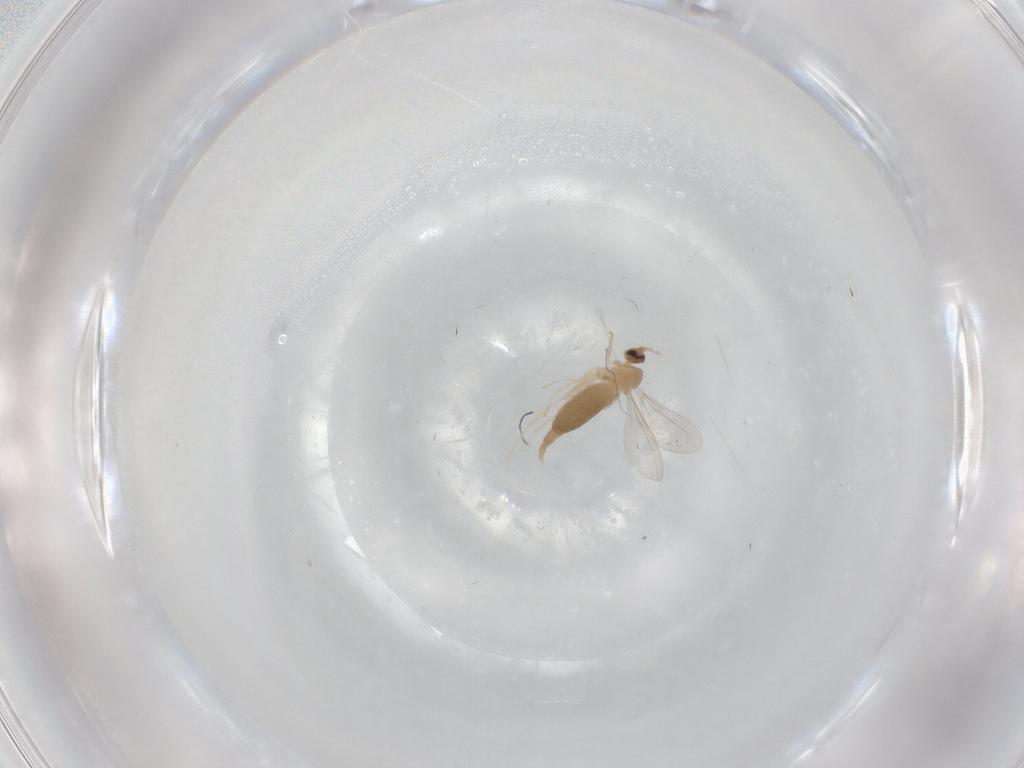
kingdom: Animalia
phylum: Arthropoda
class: Insecta
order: Diptera
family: Cecidomyiidae
